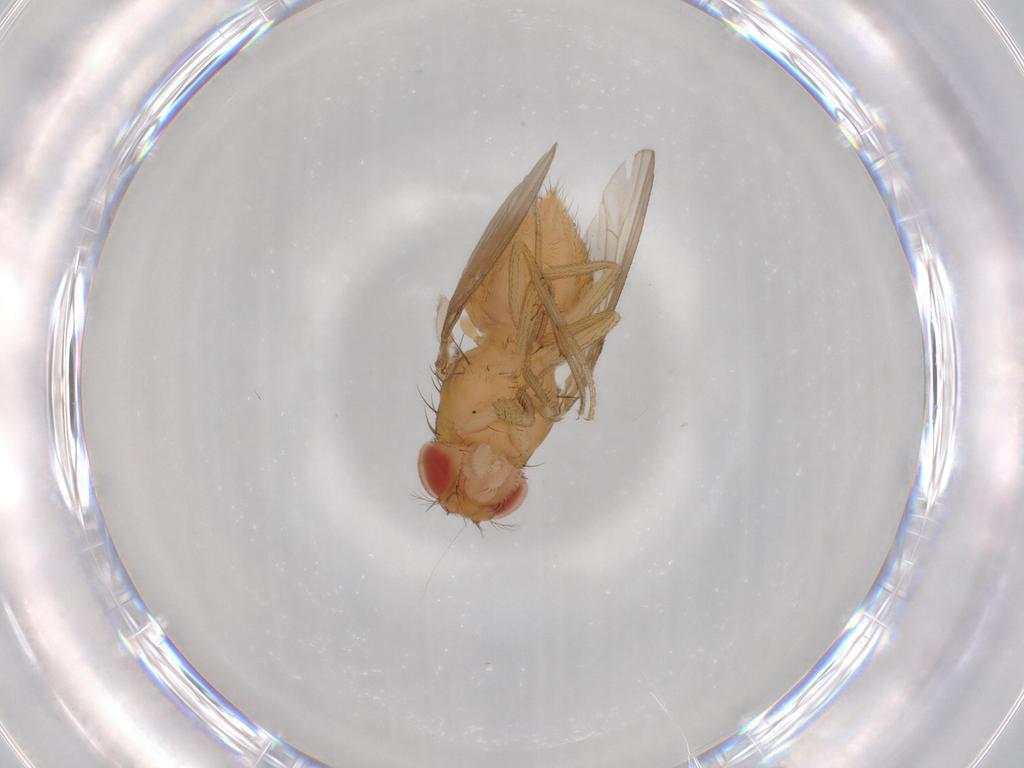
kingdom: Animalia
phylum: Arthropoda
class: Insecta
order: Diptera
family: Drosophilidae
